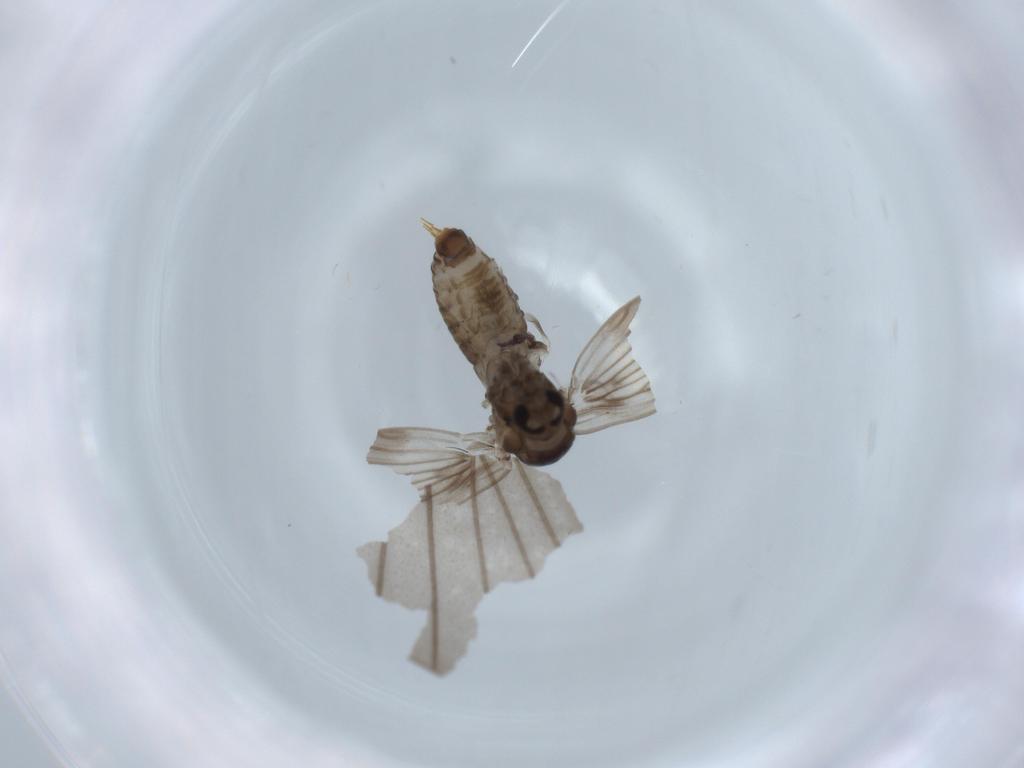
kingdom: Animalia
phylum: Arthropoda
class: Insecta
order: Diptera
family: Psychodidae
